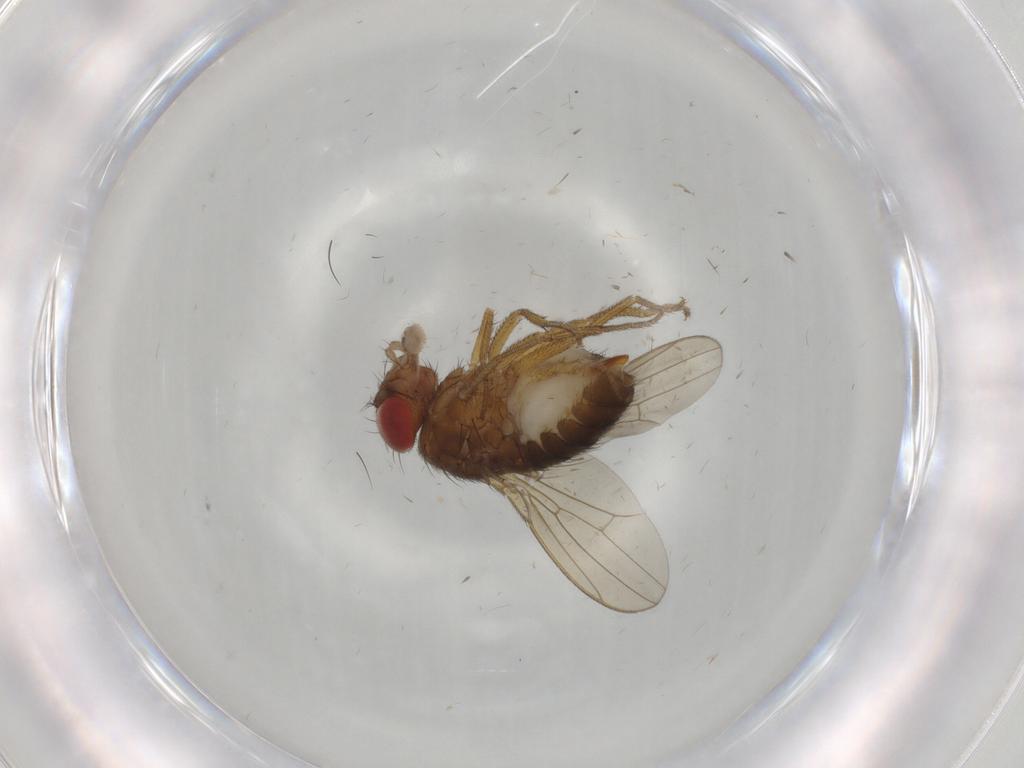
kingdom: Animalia
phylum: Arthropoda
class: Insecta
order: Diptera
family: Drosophilidae
